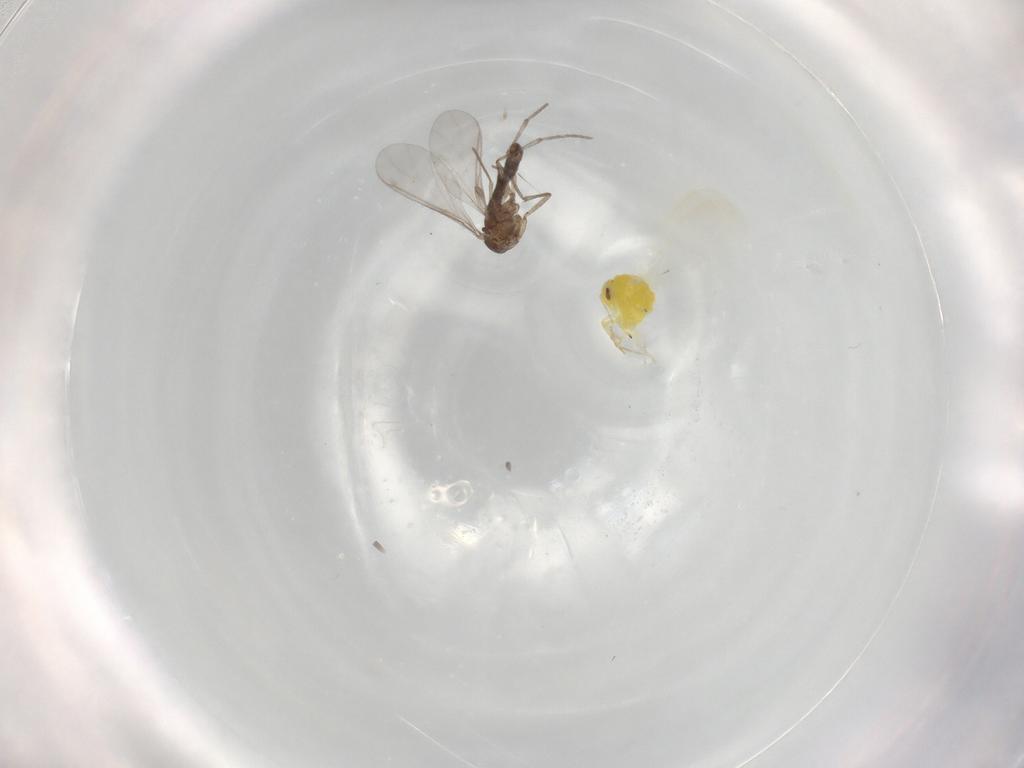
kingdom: Animalia
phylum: Arthropoda
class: Insecta
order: Diptera
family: Sciaridae
